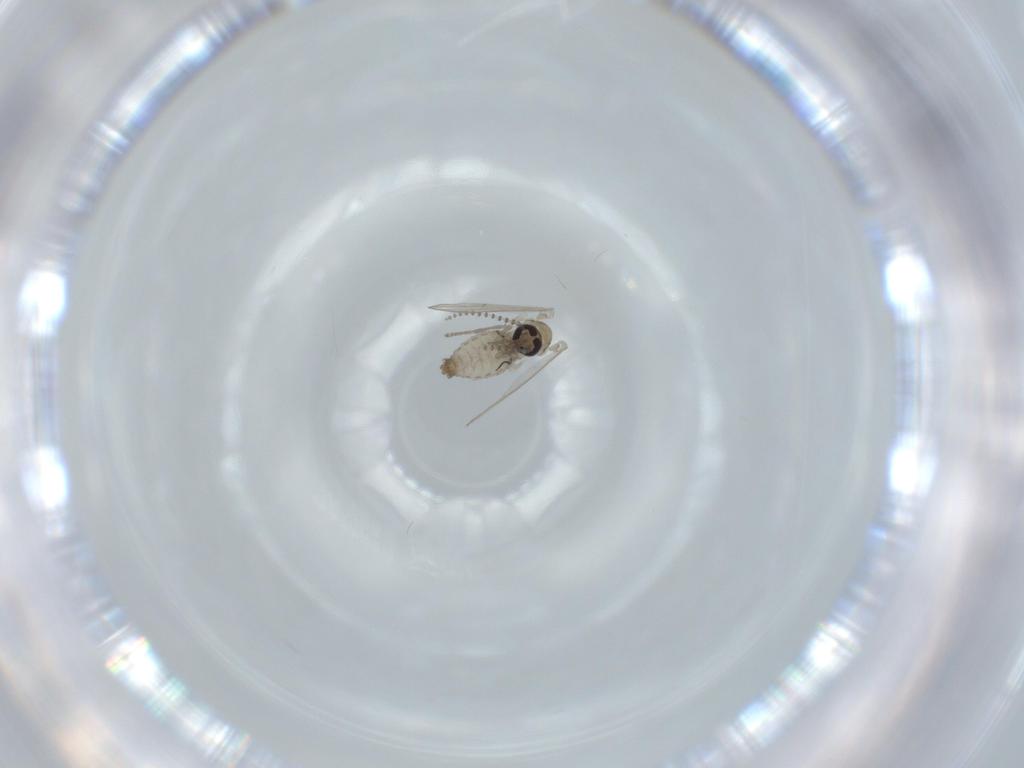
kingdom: Animalia
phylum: Arthropoda
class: Insecta
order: Diptera
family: Psychodidae
